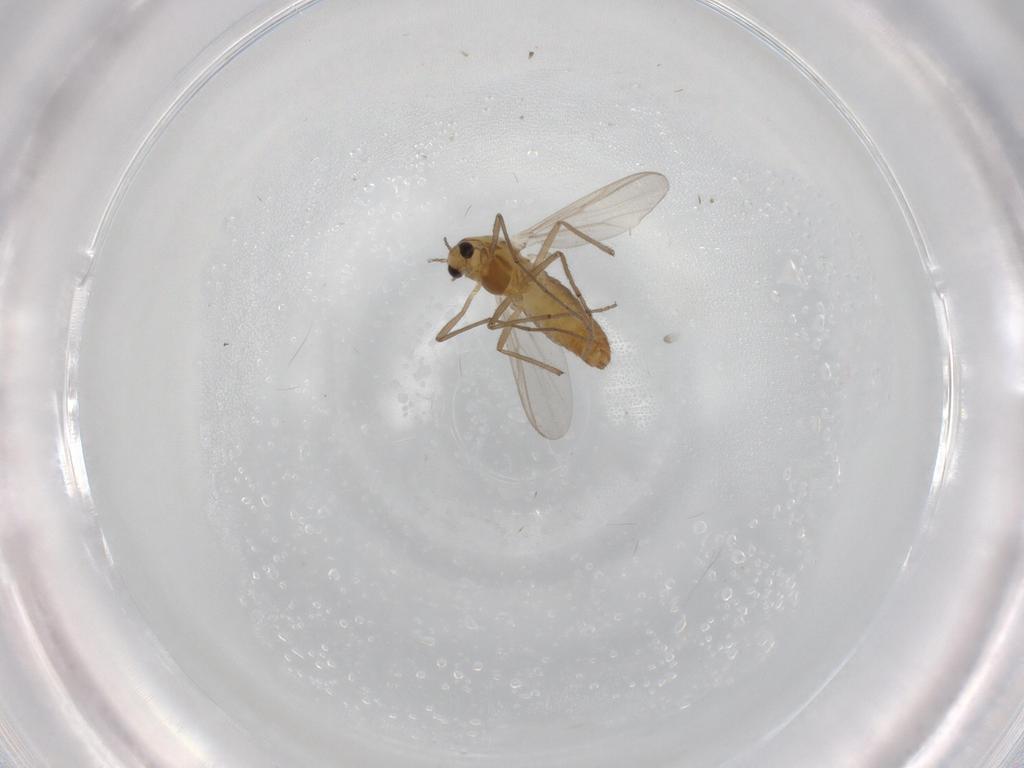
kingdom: Animalia
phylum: Arthropoda
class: Insecta
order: Diptera
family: Chironomidae
